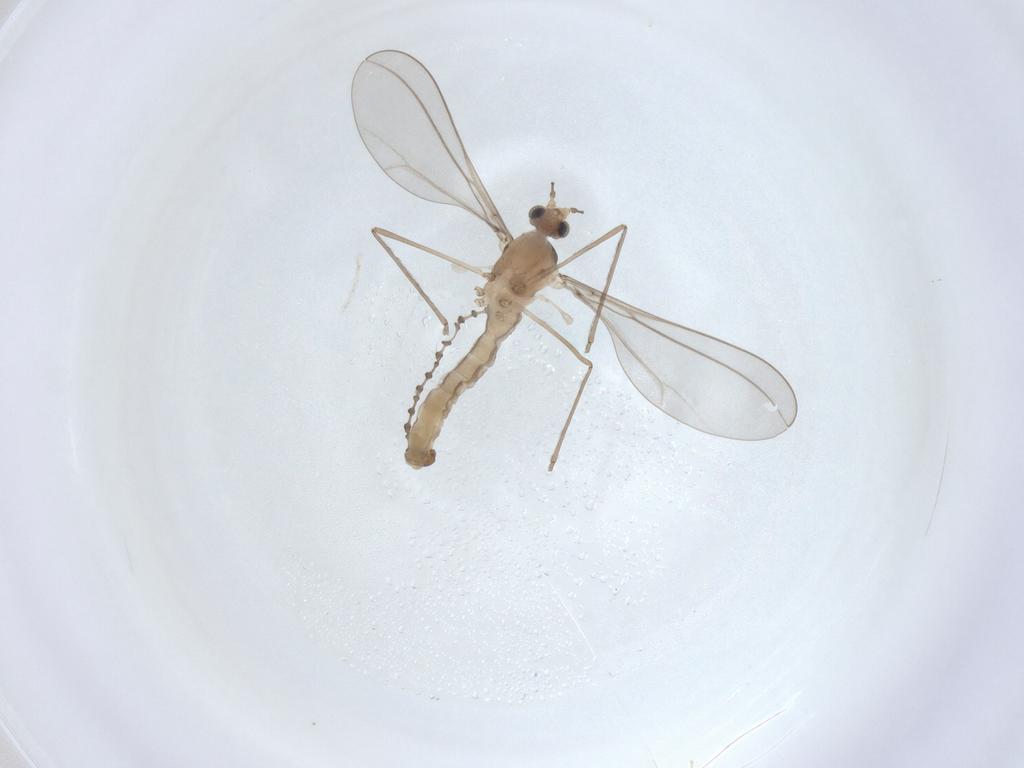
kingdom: Animalia
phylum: Arthropoda
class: Insecta
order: Diptera
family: Cecidomyiidae
